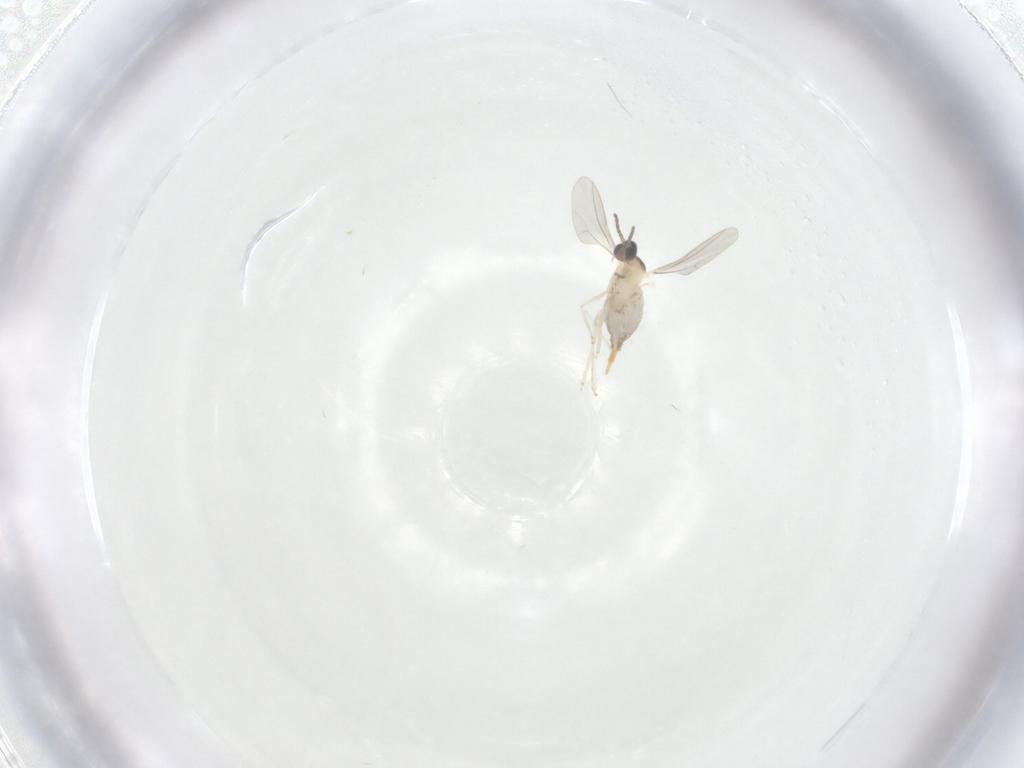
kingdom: Animalia
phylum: Arthropoda
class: Insecta
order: Diptera
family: Cecidomyiidae
